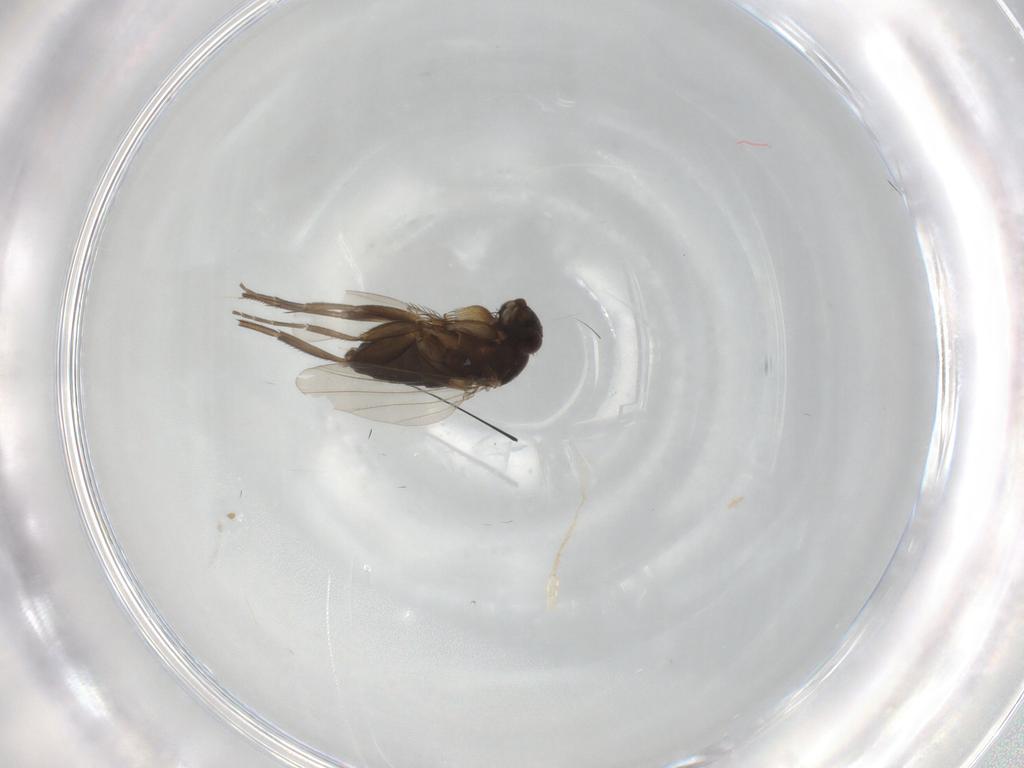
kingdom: Animalia
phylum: Arthropoda
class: Insecta
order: Diptera
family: Phoridae
